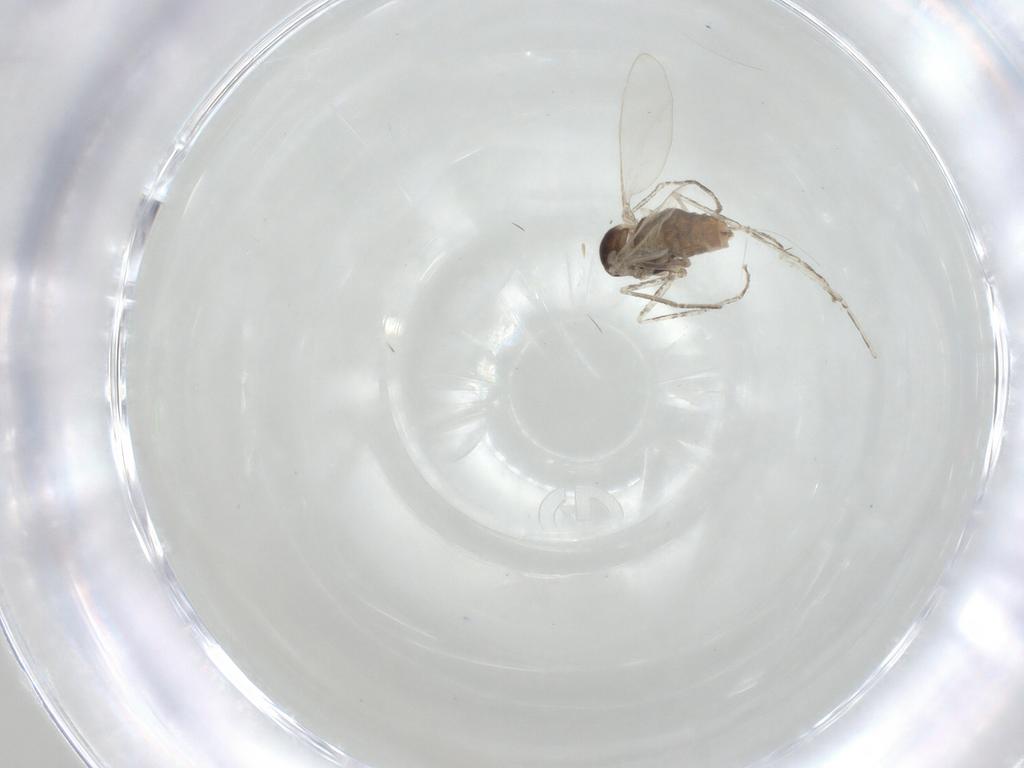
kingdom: Animalia
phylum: Arthropoda
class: Insecta
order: Diptera
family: Cecidomyiidae
